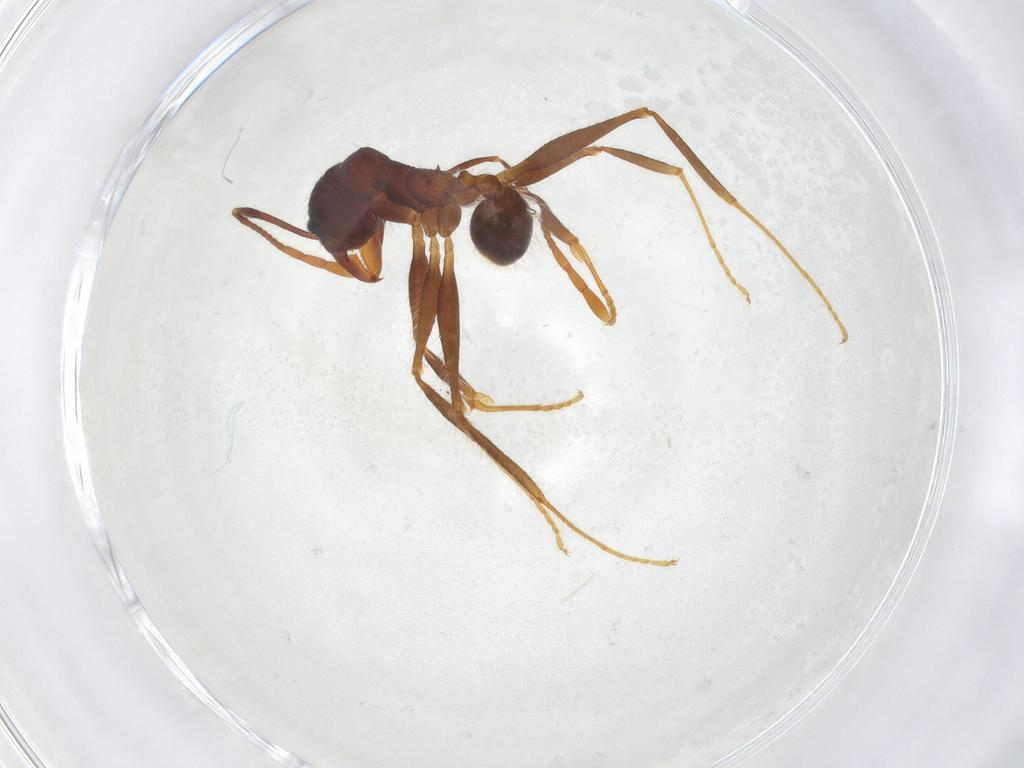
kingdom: Animalia
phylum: Arthropoda
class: Insecta
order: Hymenoptera
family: Formicidae
